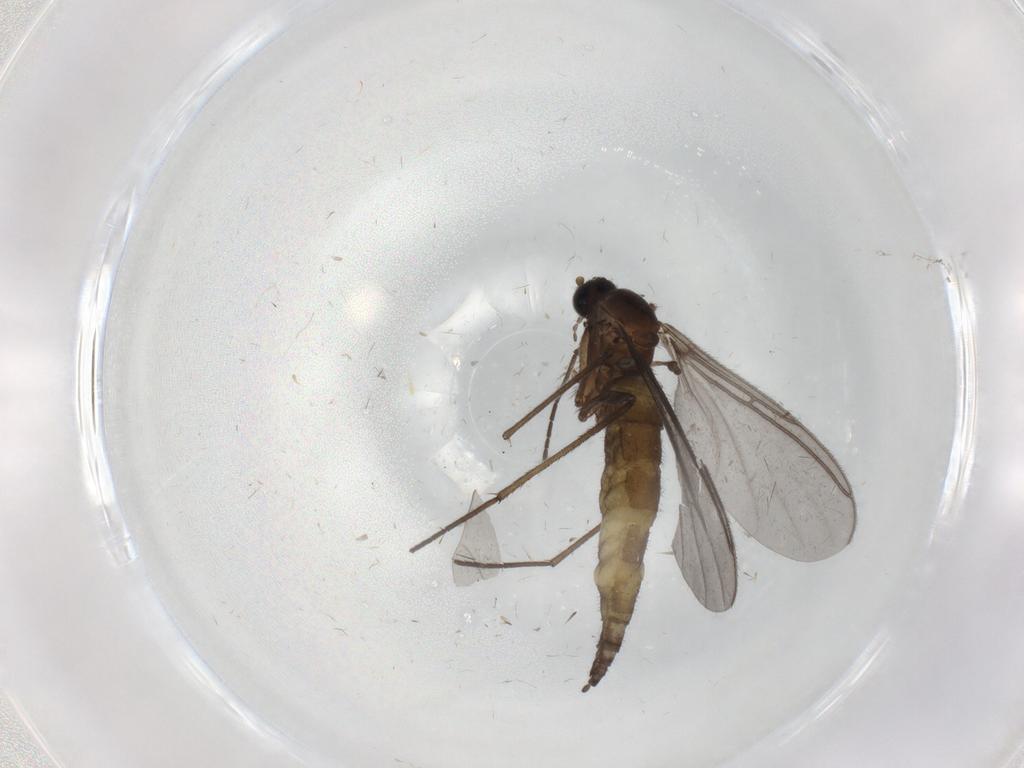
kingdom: Animalia
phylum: Arthropoda
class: Insecta
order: Diptera
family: Sciaridae
